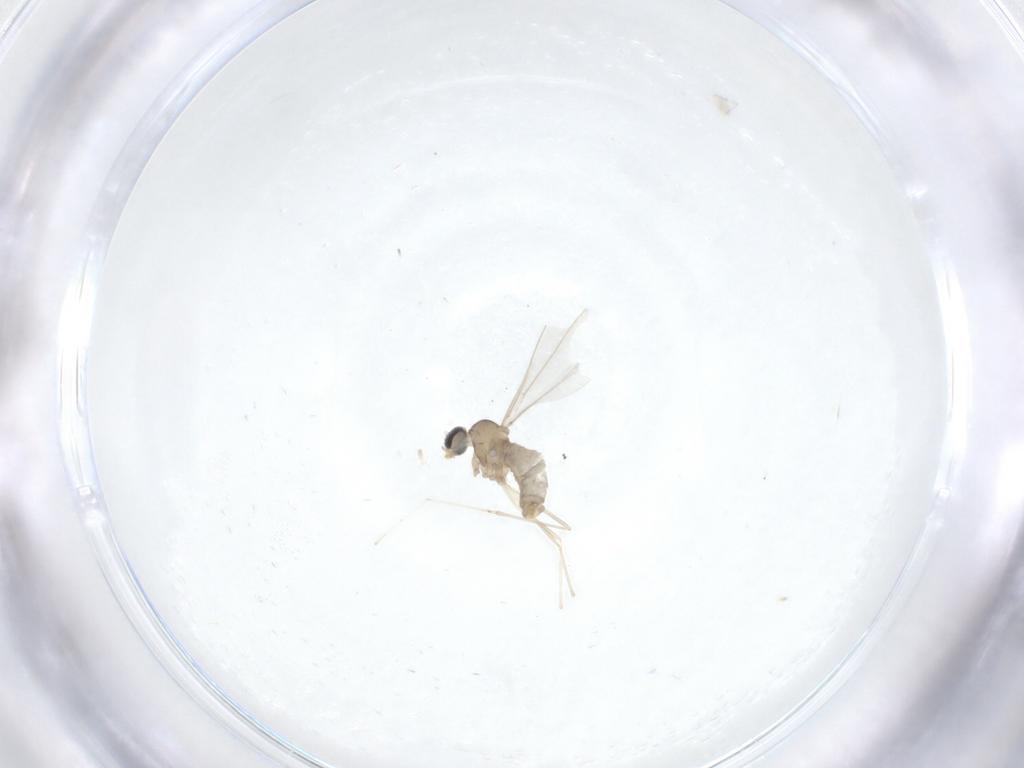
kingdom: Animalia
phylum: Arthropoda
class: Insecta
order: Diptera
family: Cecidomyiidae
